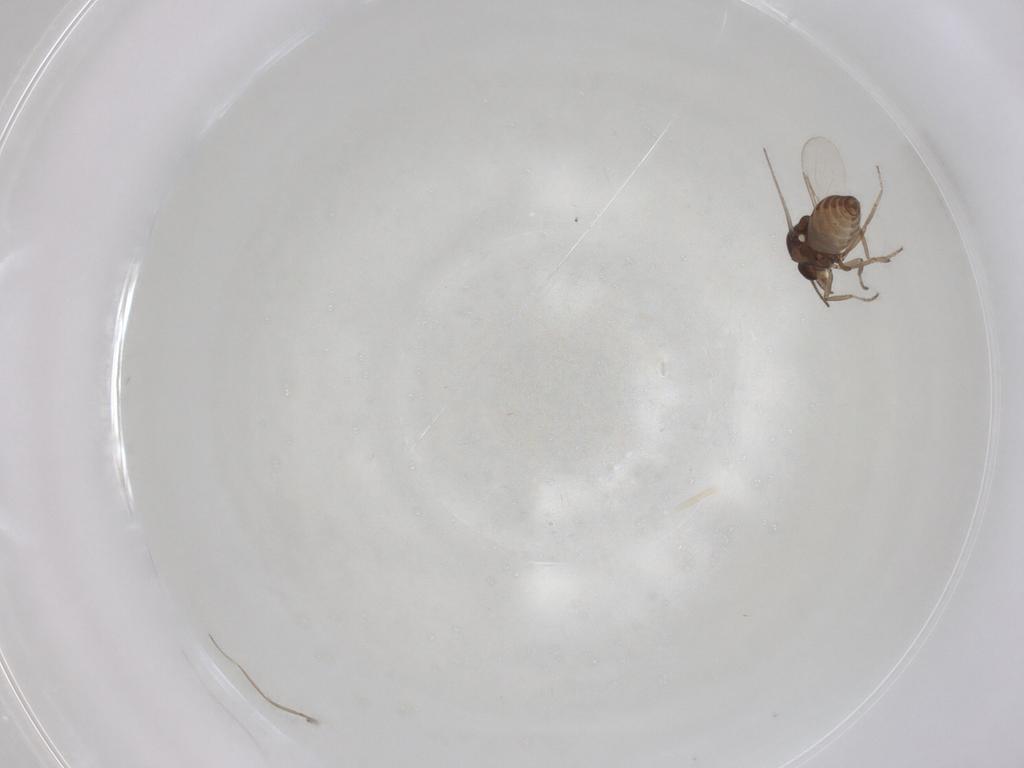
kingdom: Animalia
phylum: Arthropoda
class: Insecta
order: Diptera
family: Ceratopogonidae
